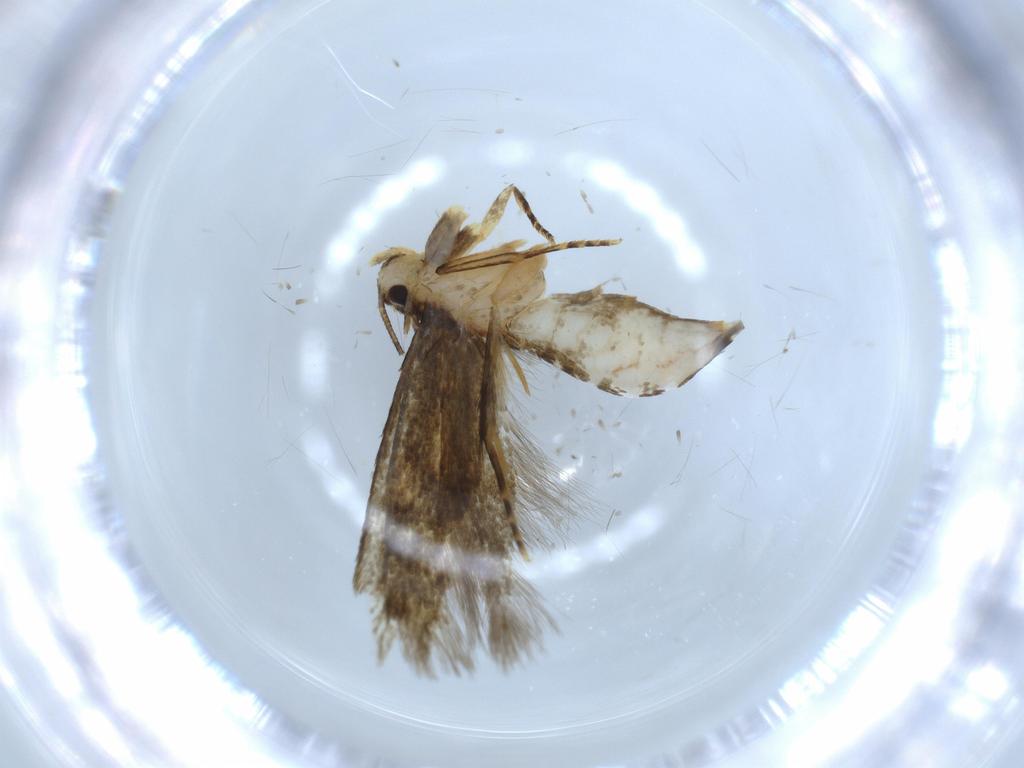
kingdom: Animalia
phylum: Arthropoda
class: Insecta
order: Lepidoptera
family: Tineidae
